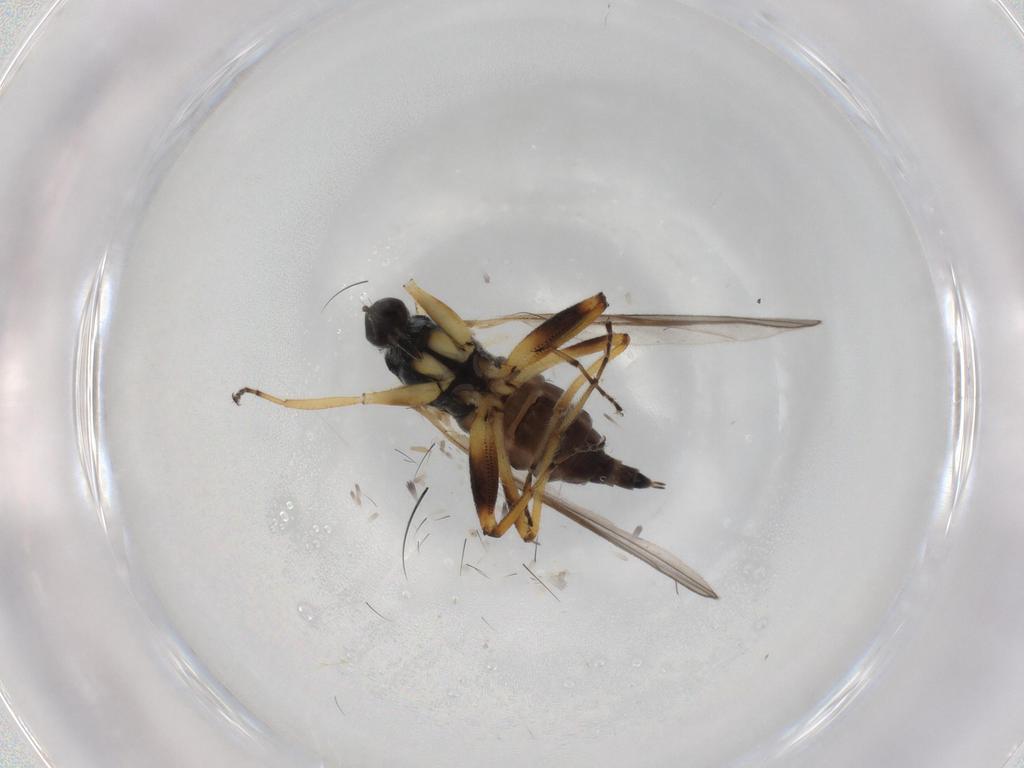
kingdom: Animalia
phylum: Arthropoda
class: Insecta
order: Diptera
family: Hybotidae
